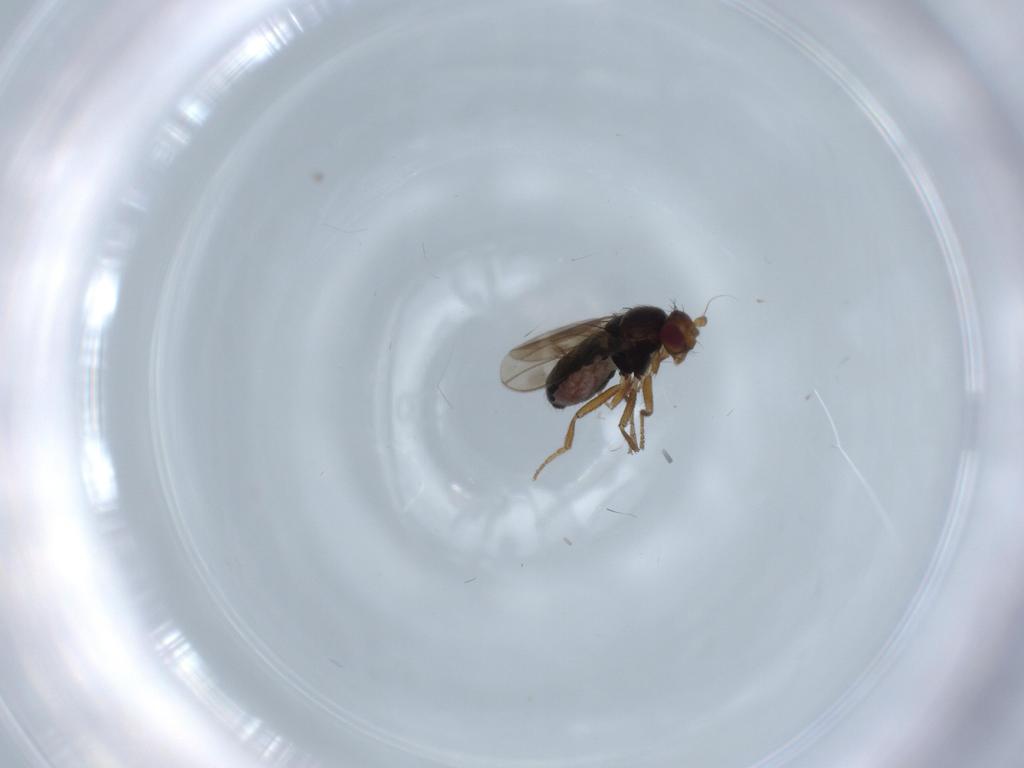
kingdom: Animalia
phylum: Arthropoda
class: Insecta
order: Diptera
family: Sphaeroceridae
